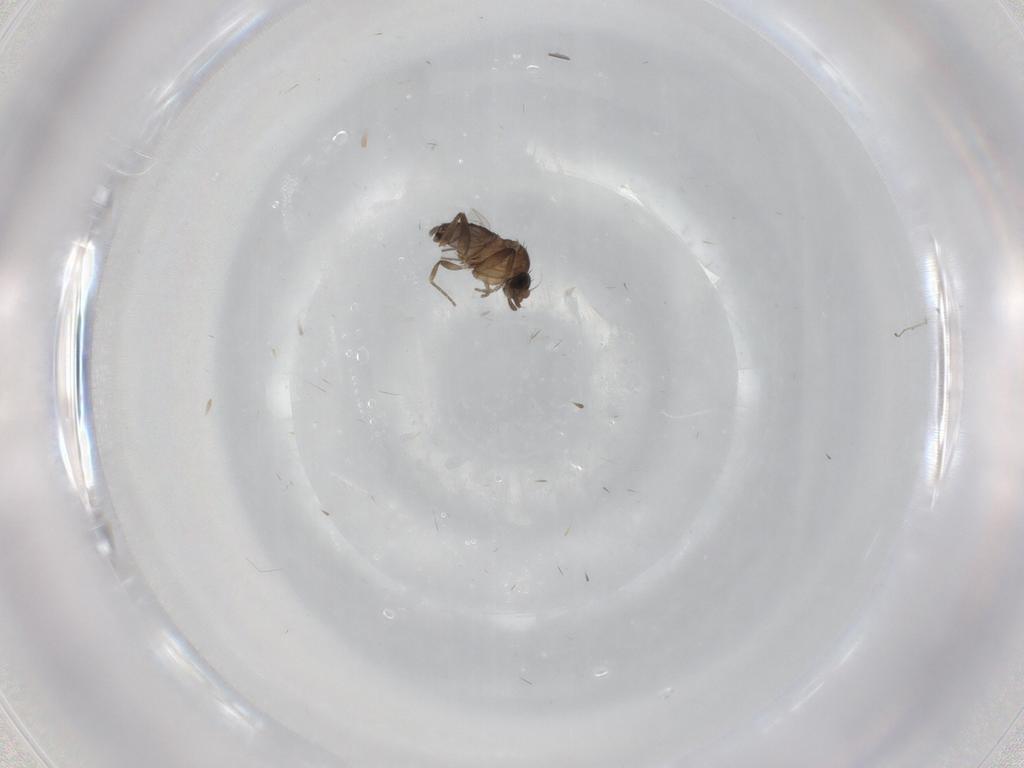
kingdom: Animalia
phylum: Arthropoda
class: Insecta
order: Diptera
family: Phoridae
